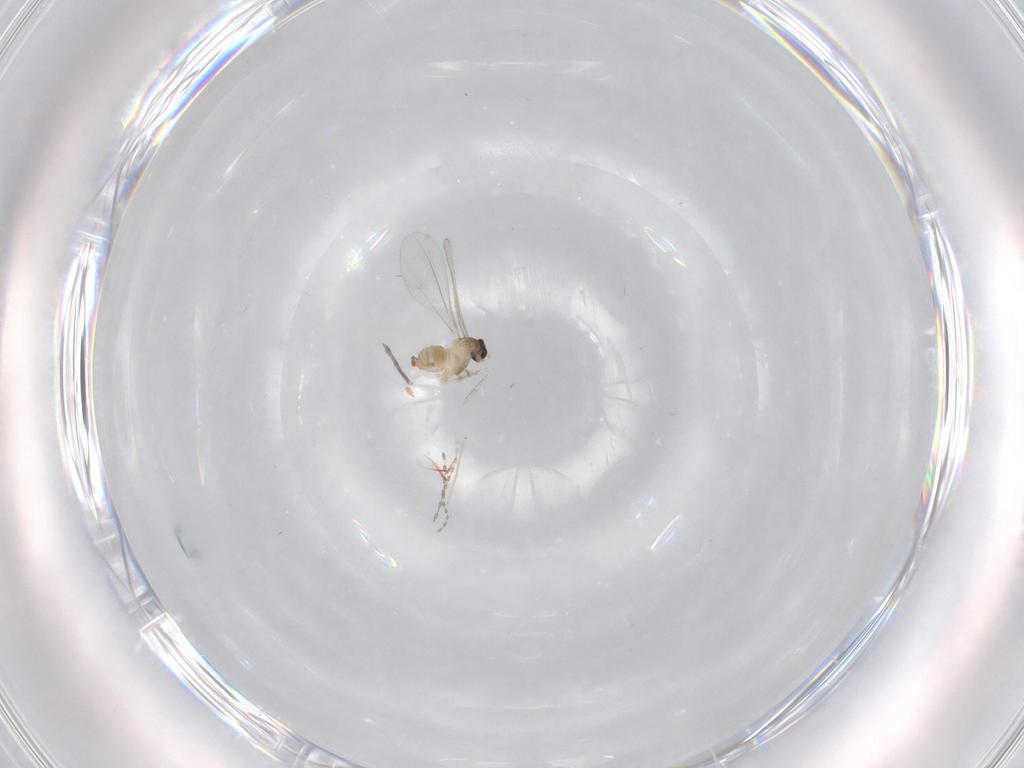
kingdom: Animalia
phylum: Arthropoda
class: Insecta
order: Diptera
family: Cecidomyiidae
